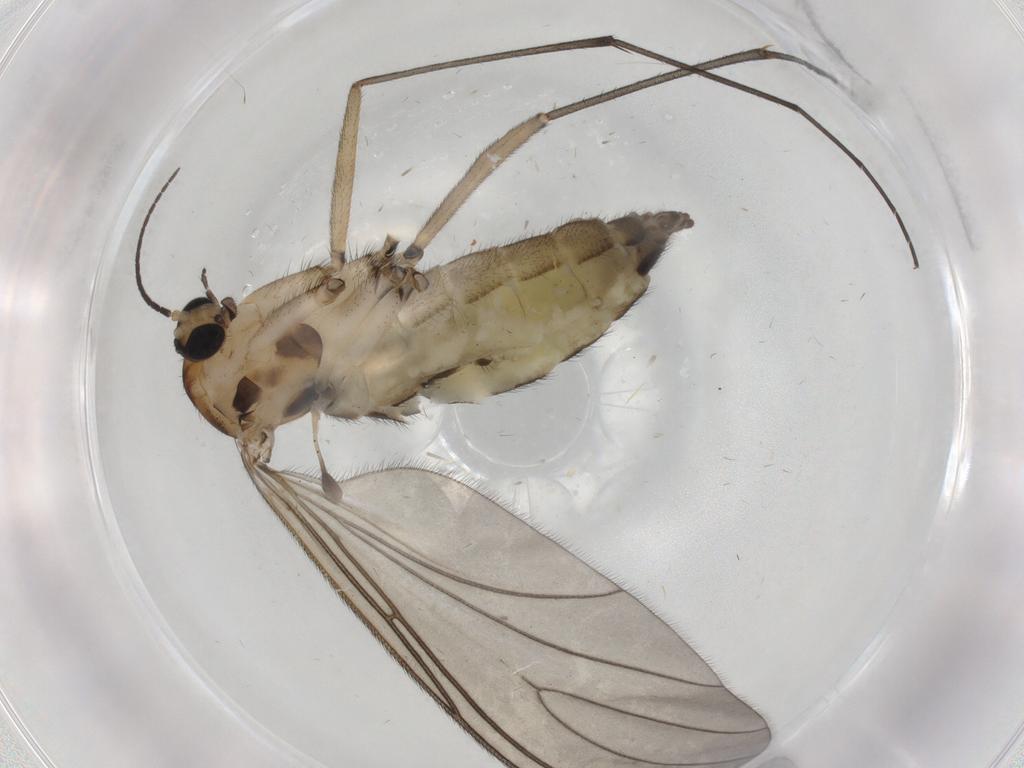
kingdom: Animalia
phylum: Arthropoda
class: Insecta
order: Diptera
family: Sciaridae
